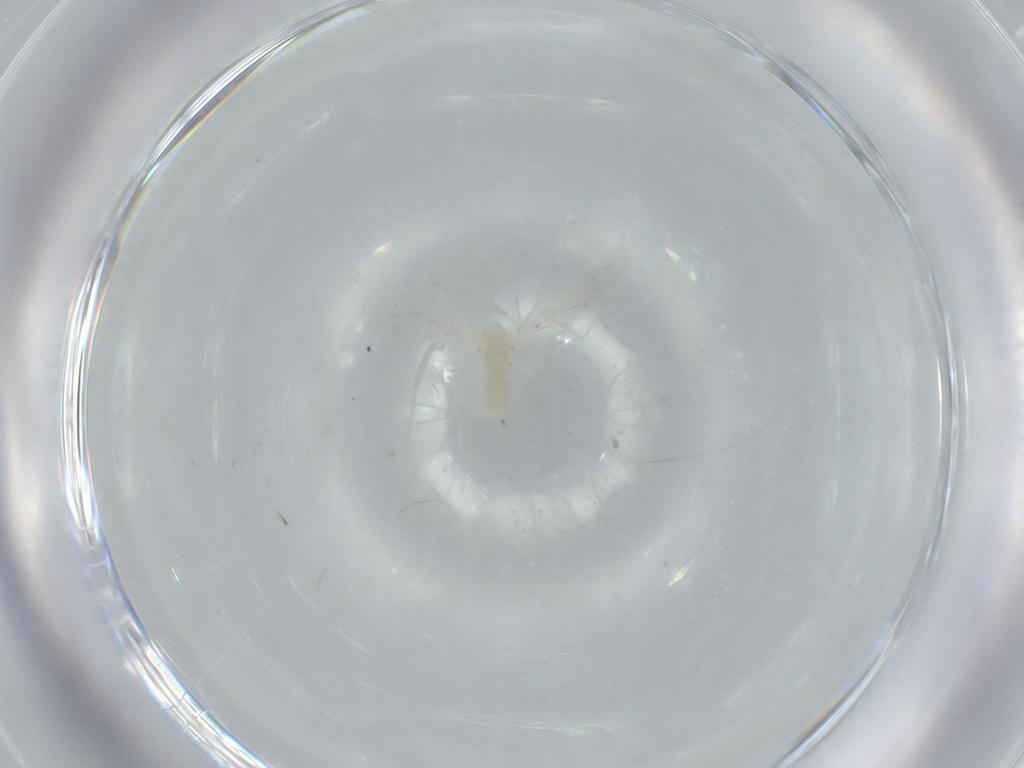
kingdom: Animalia
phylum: Arthropoda
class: Insecta
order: Diptera
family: Cecidomyiidae
